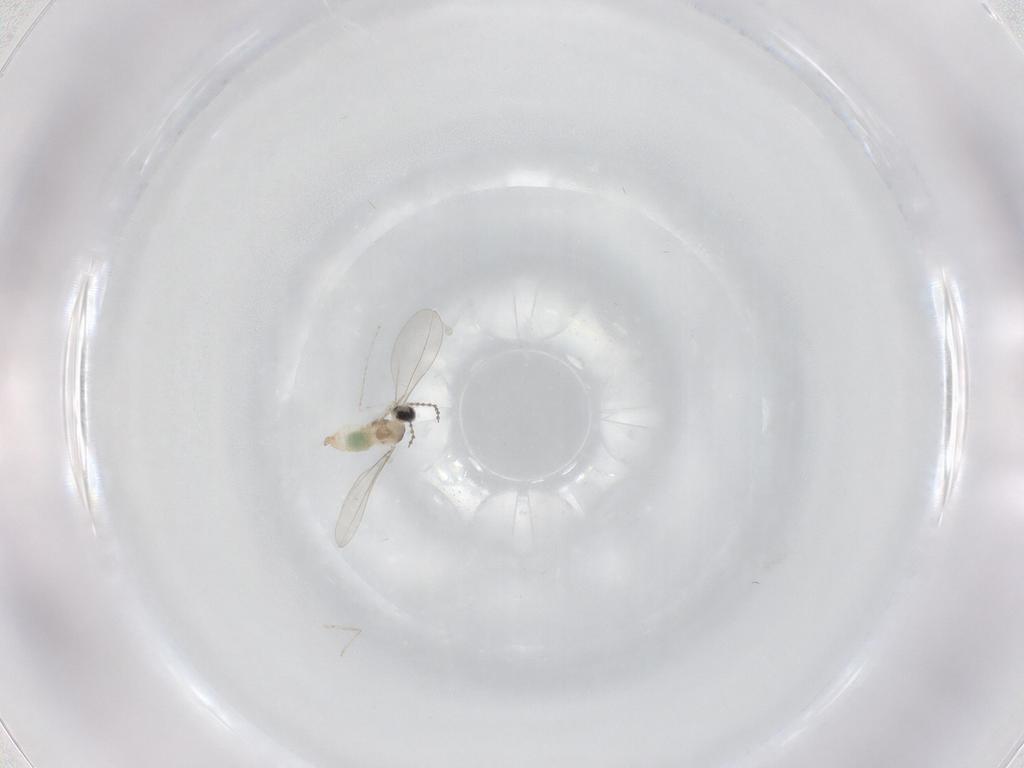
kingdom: Animalia
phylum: Arthropoda
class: Insecta
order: Diptera
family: Cecidomyiidae
